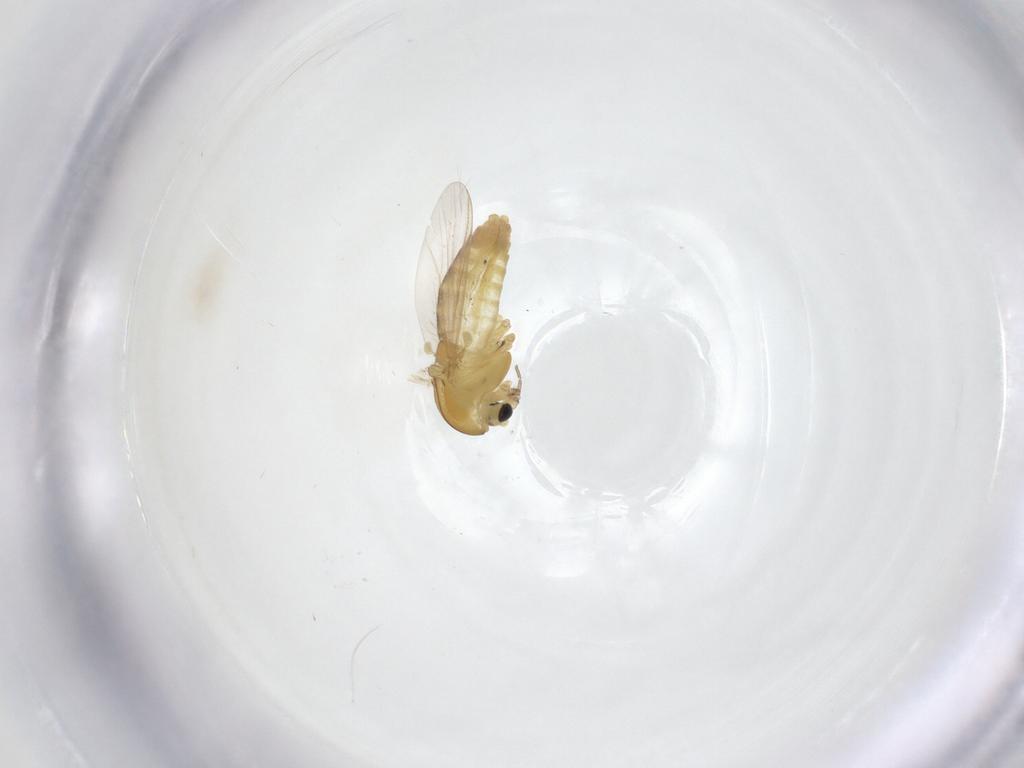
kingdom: Animalia
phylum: Arthropoda
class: Insecta
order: Diptera
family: Chironomidae
